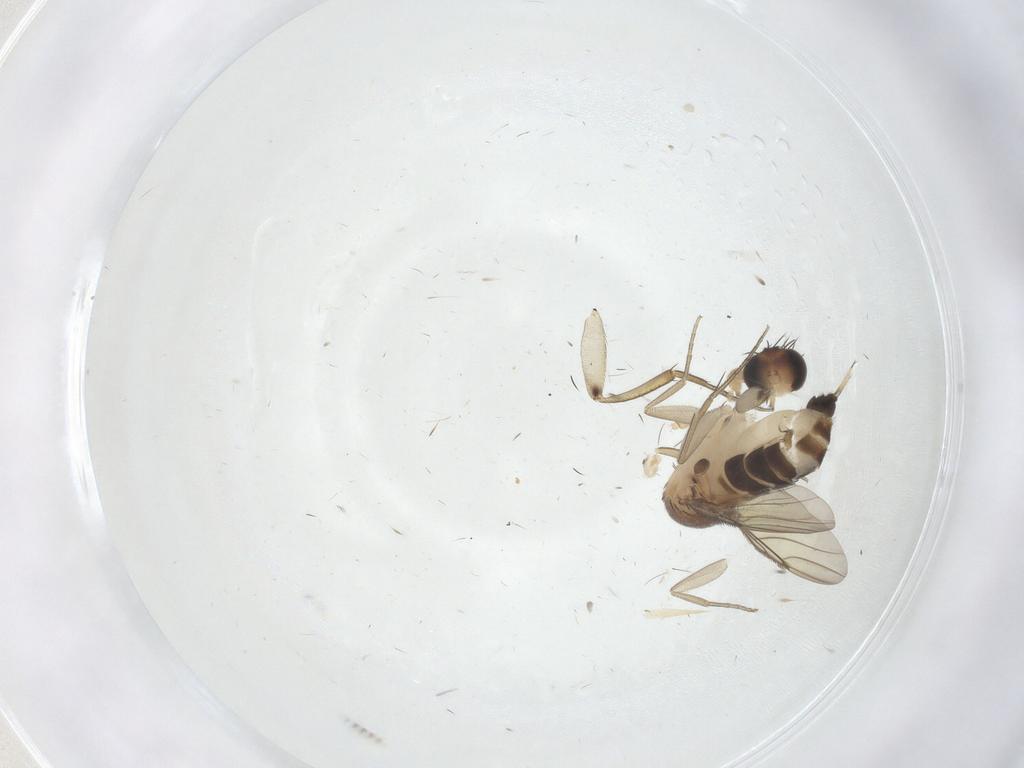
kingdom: Animalia
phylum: Arthropoda
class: Insecta
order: Diptera
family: Phoridae
